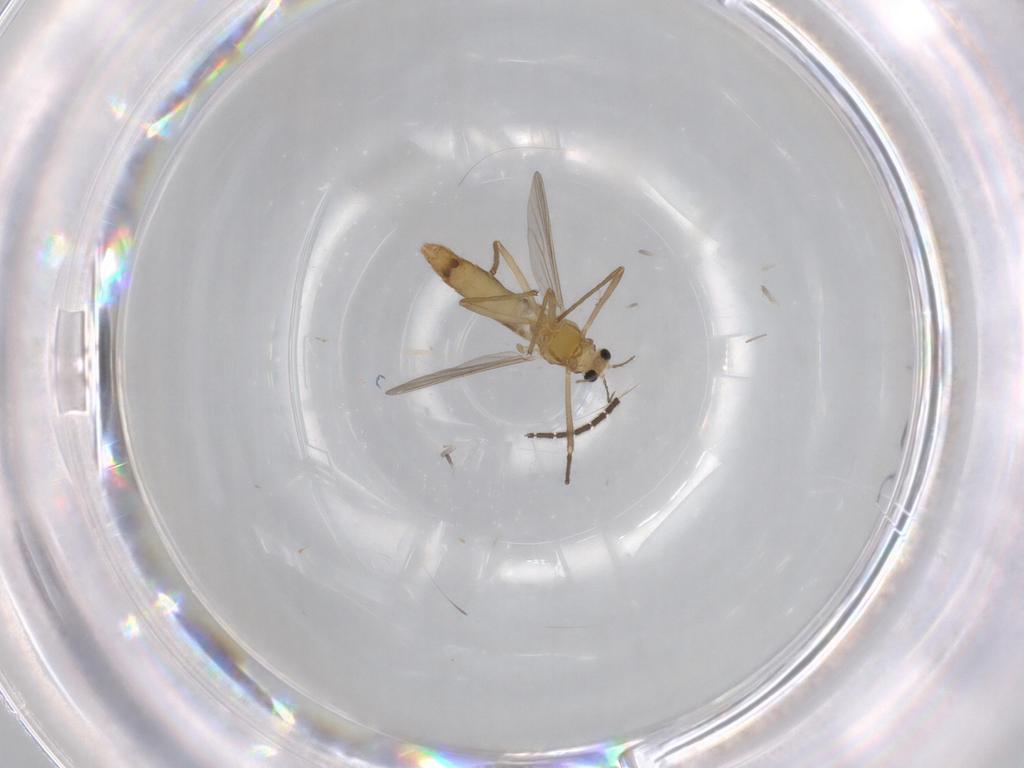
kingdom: Animalia
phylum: Arthropoda
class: Insecta
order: Diptera
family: Sciaridae
